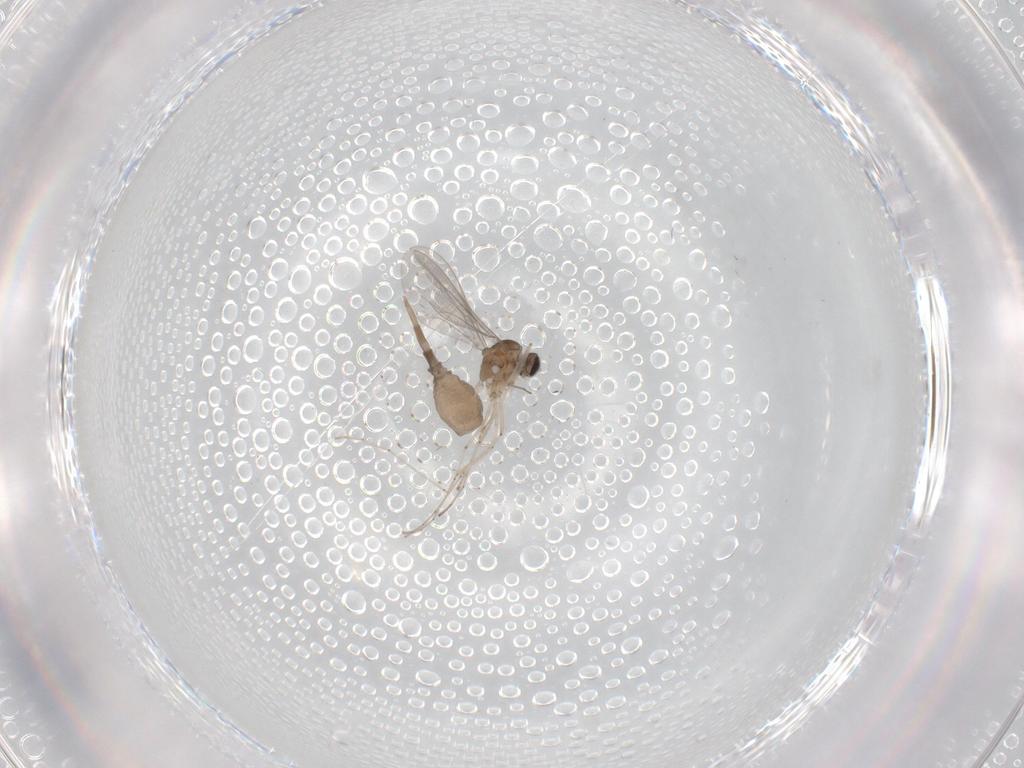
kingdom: Animalia
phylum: Arthropoda
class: Insecta
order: Diptera
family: Cecidomyiidae
